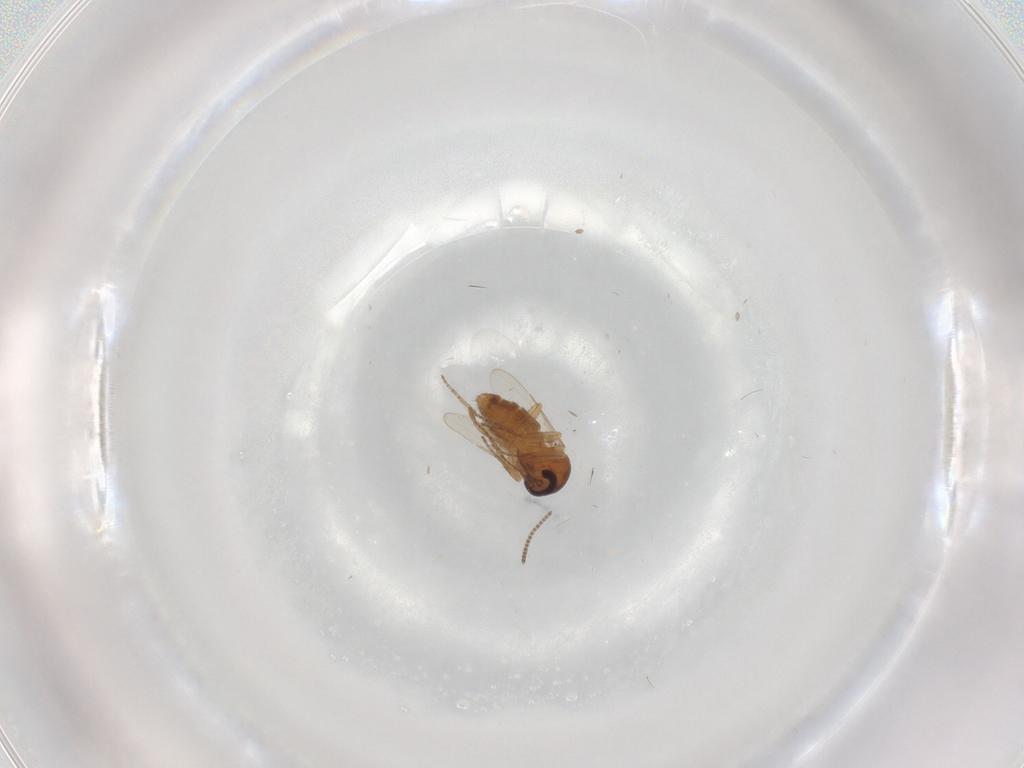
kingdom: Animalia
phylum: Arthropoda
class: Insecta
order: Diptera
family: Ceratopogonidae
